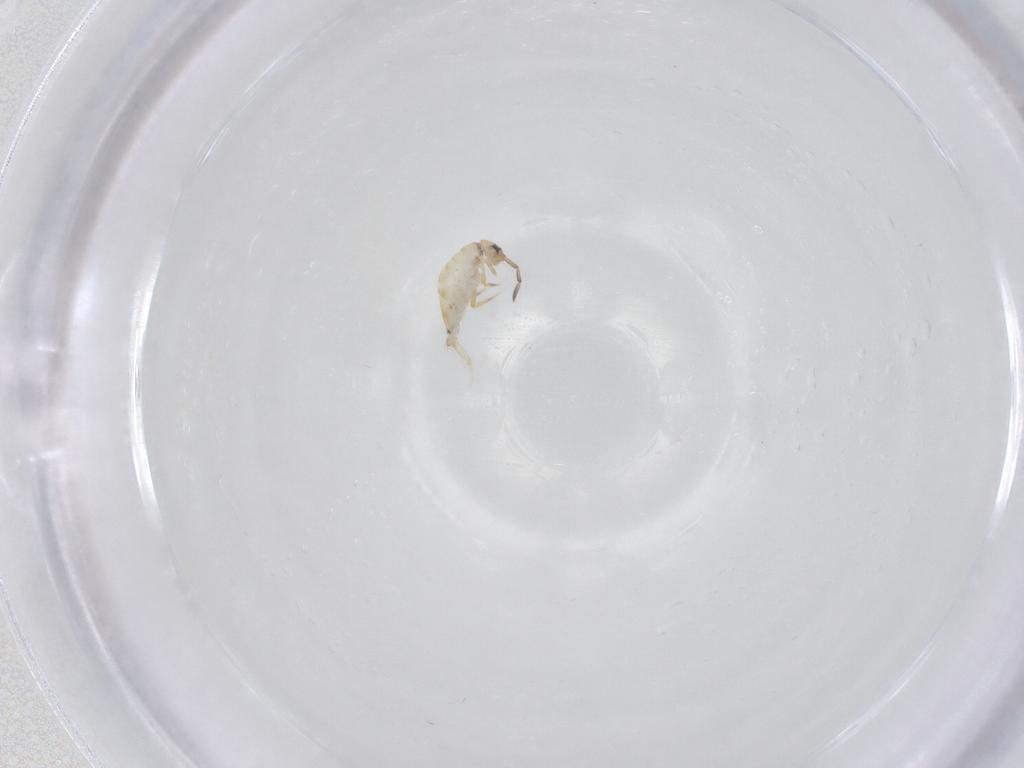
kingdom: Animalia
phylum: Arthropoda
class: Collembola
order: Entomobryomorpha
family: Entomobryidae
